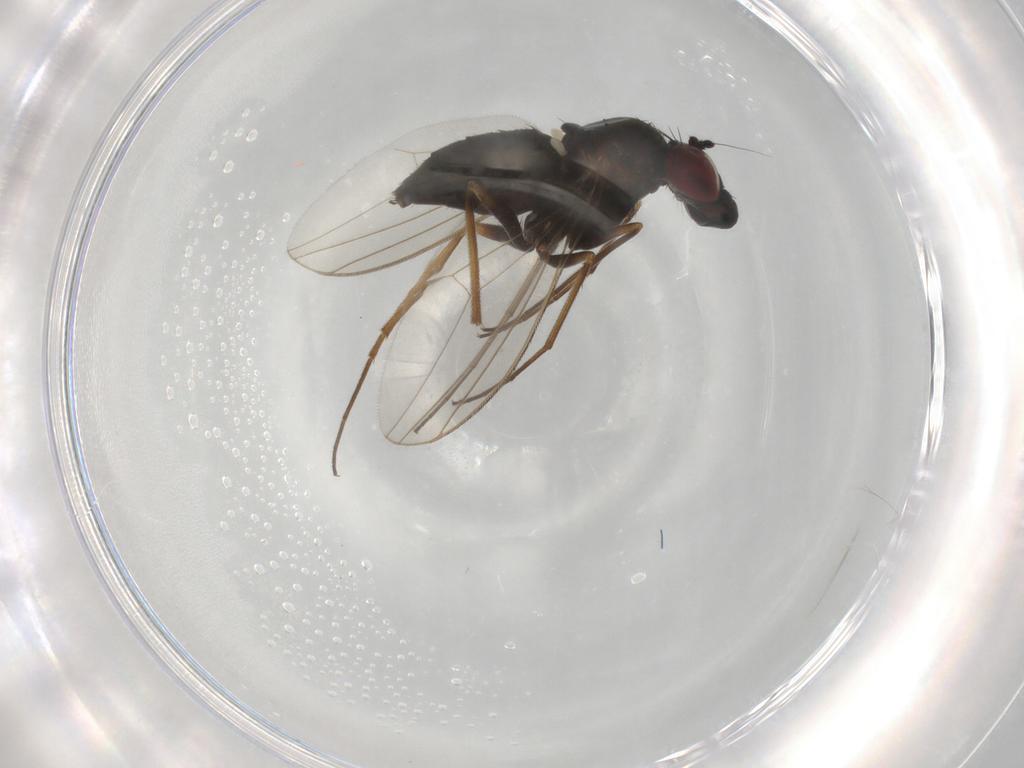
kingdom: Animalia
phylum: Arthropoda
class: Insecta
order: Diptera
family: Dolichopodidae
